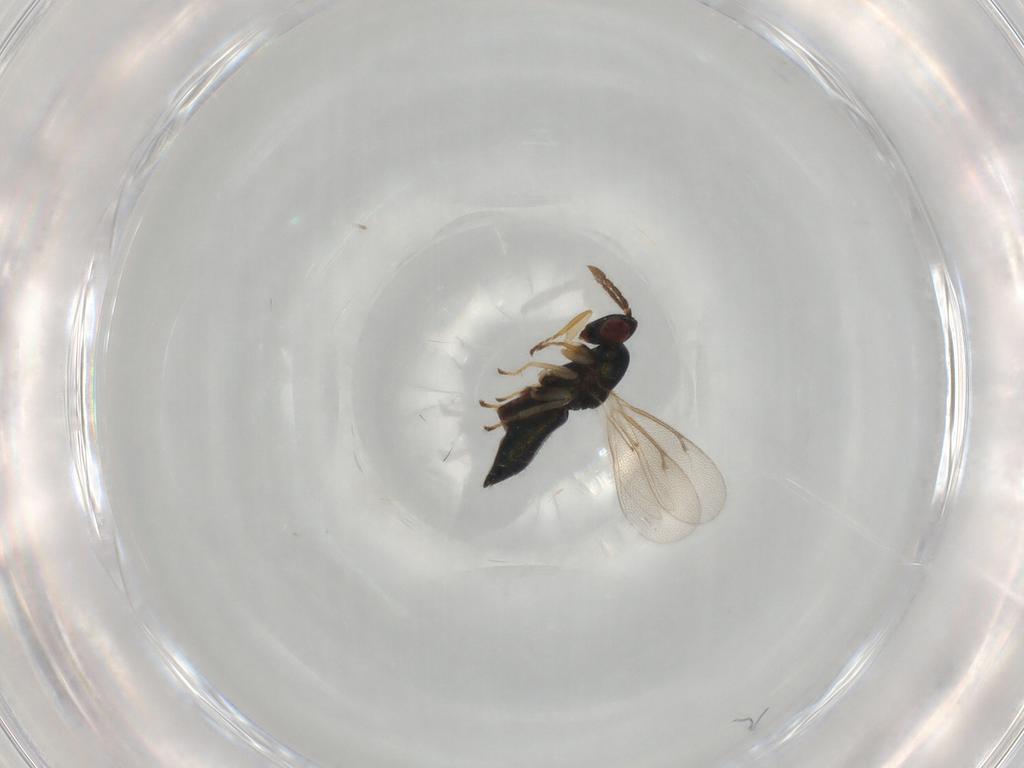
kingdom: Animalia
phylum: Arthropoda
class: Insecta
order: Hymenoptera
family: Eulophidae
